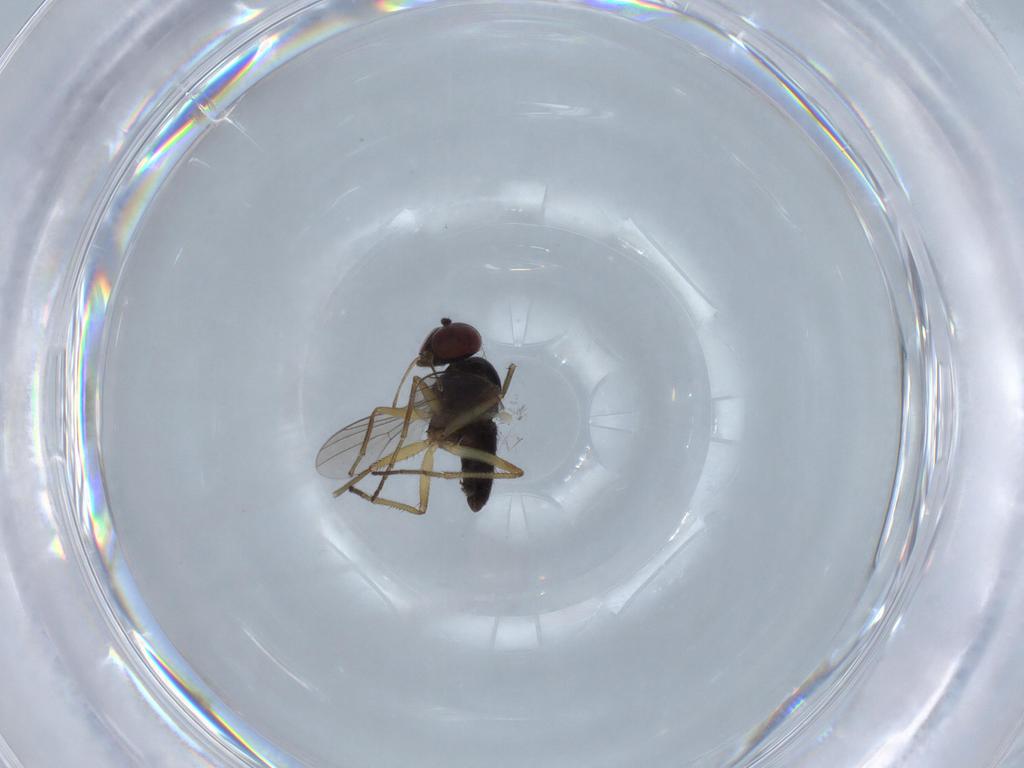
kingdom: Animalia
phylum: Arthropoda
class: Insecta
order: Diptera
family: Dolichopodidae
